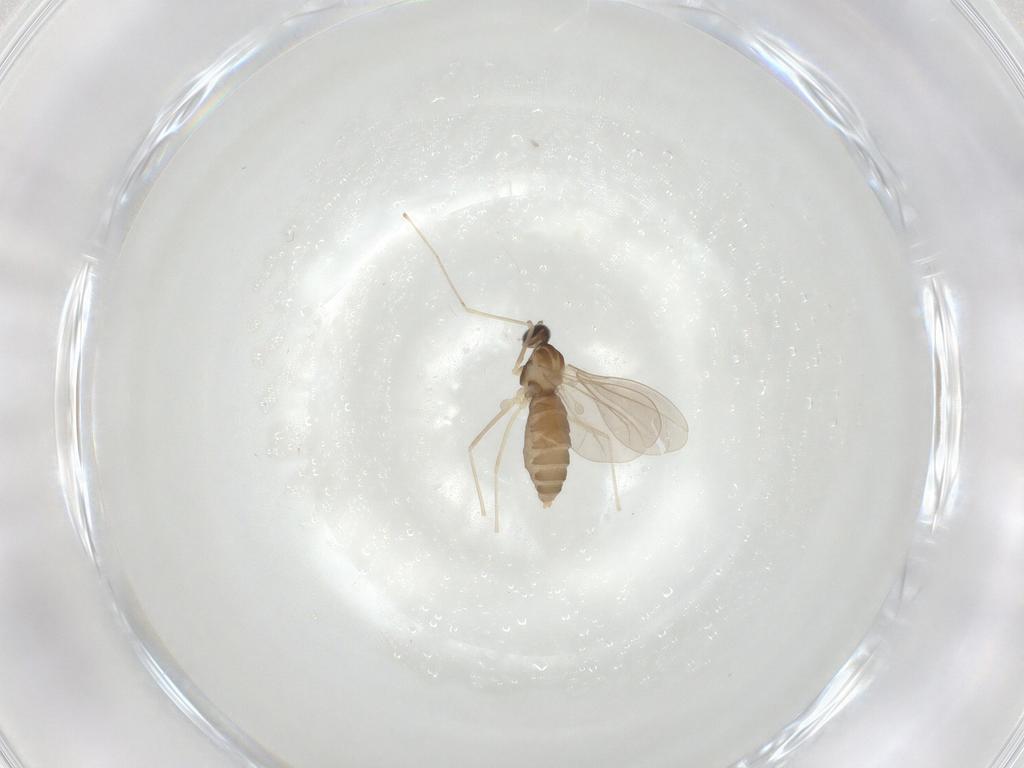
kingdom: Animalia
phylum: Arthropoda
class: Insecta
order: Diptera
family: Cecidomyiidae
